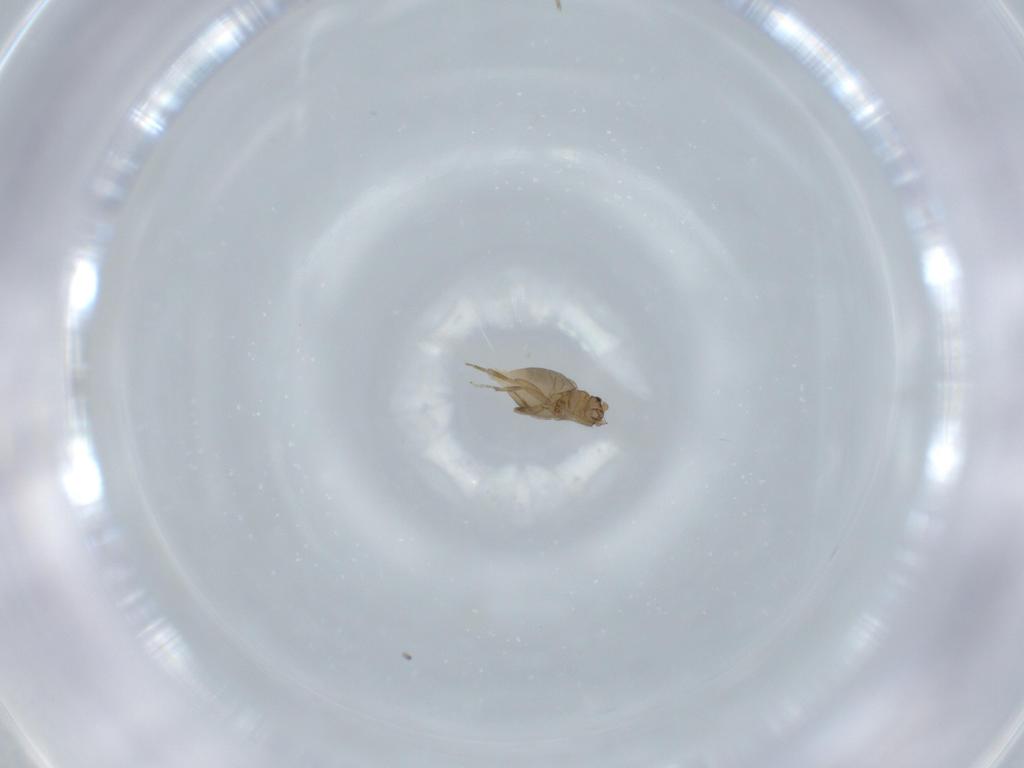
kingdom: Animalia
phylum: Arthropoda
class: Insecta
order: Diptera
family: Phoridae
